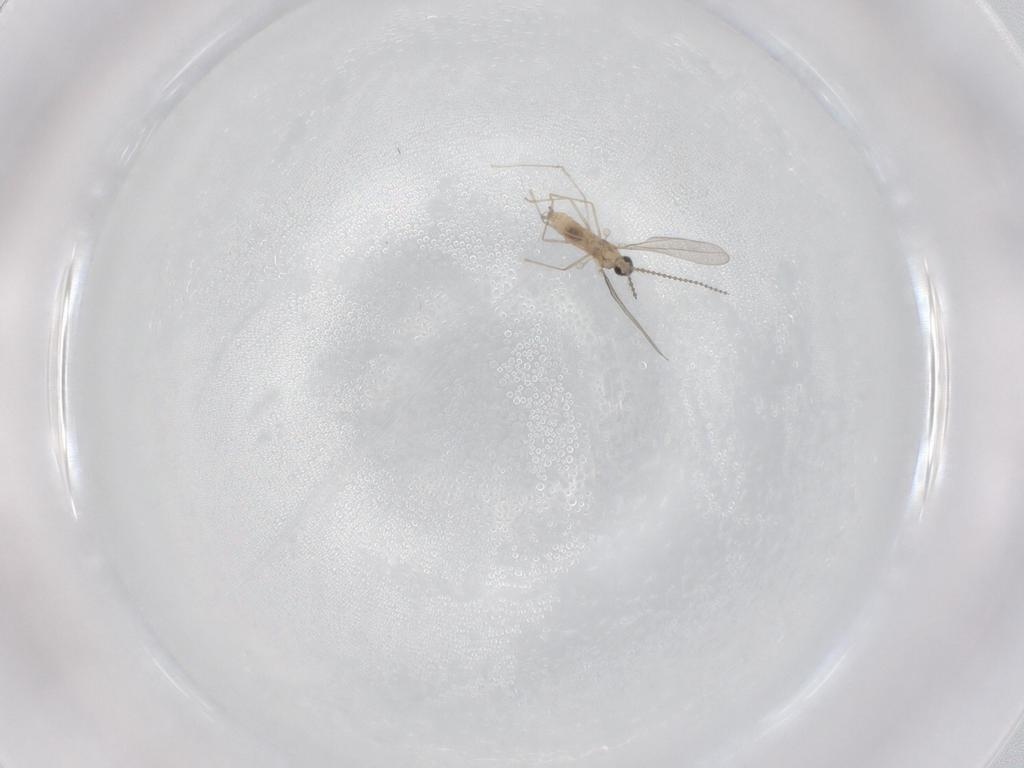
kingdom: Animalia
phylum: Arthropoda
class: Insecta
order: Diptera
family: Cecidomyiidae
